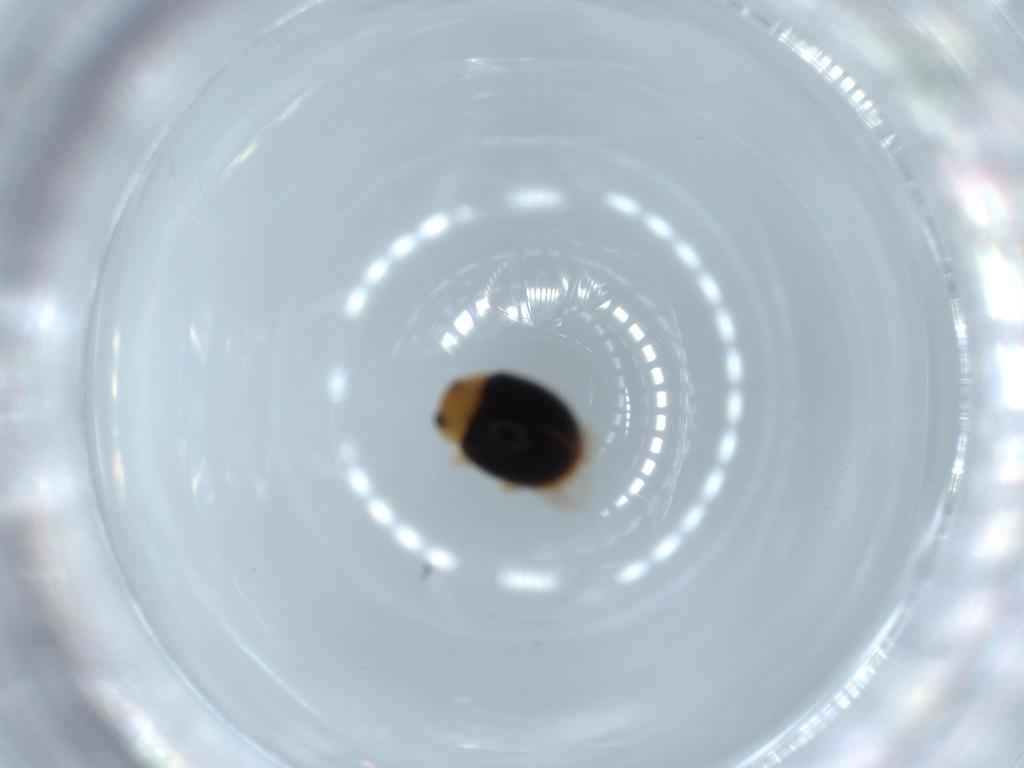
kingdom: Animalia
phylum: Arthropoda
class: Insecta
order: Coleoptera
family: Coccinellidae
